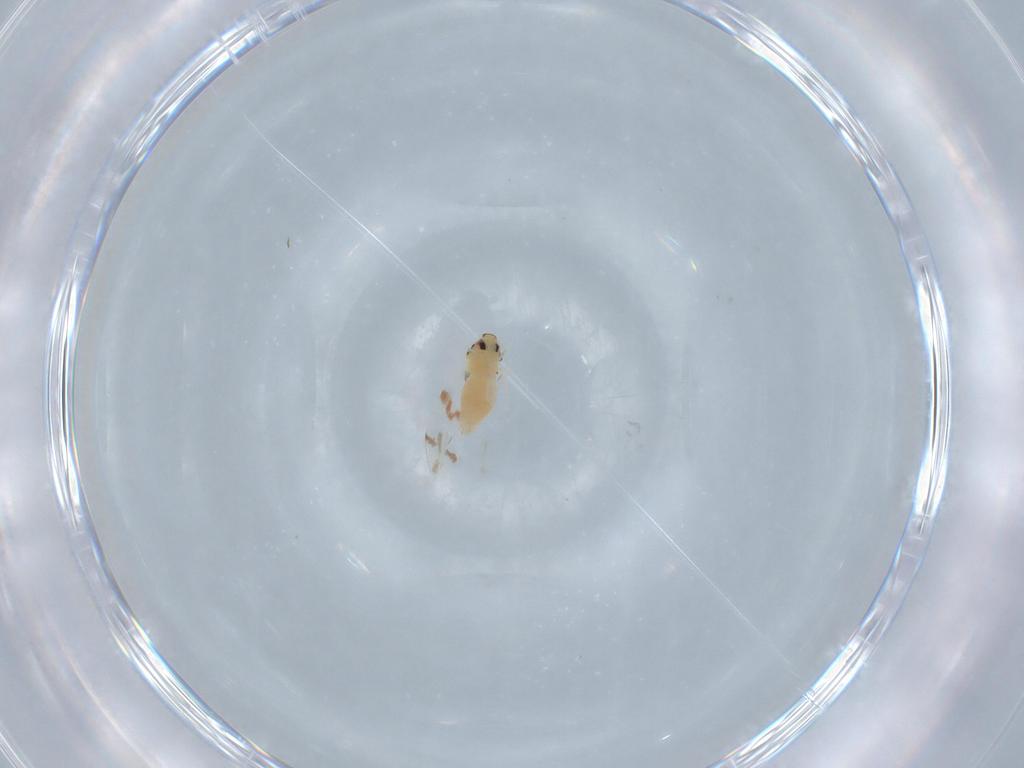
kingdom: Animalia
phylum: Arthropoda
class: Insecta
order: Hemiptera
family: Aleyrodidae
